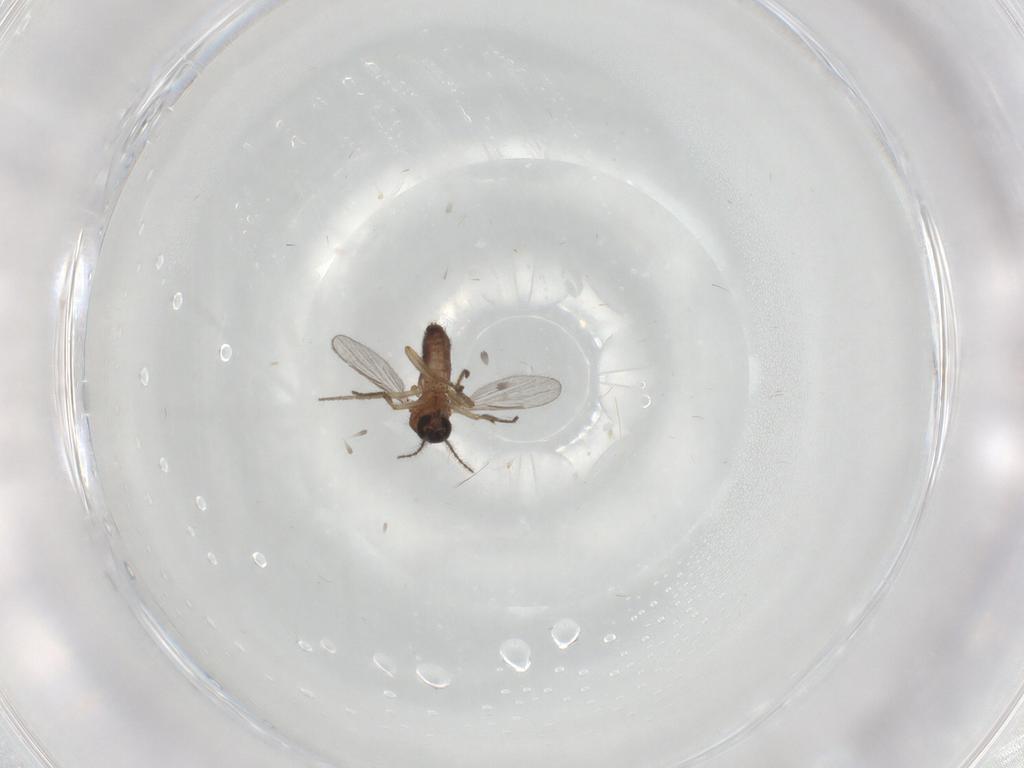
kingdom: Animalia
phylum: Arthropoda
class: Insecta
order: Diptera
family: Ceratopogonidae
